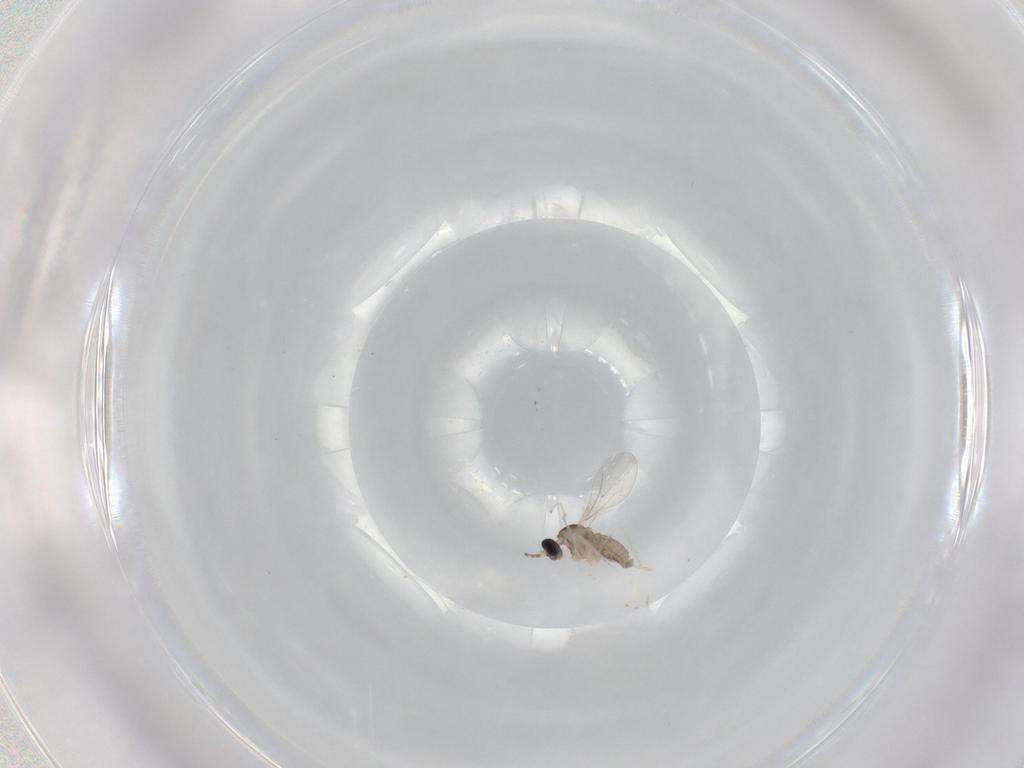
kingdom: Animalia
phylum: Arthropoda
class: Insecta
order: Diptera
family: Cecidomyiidae
